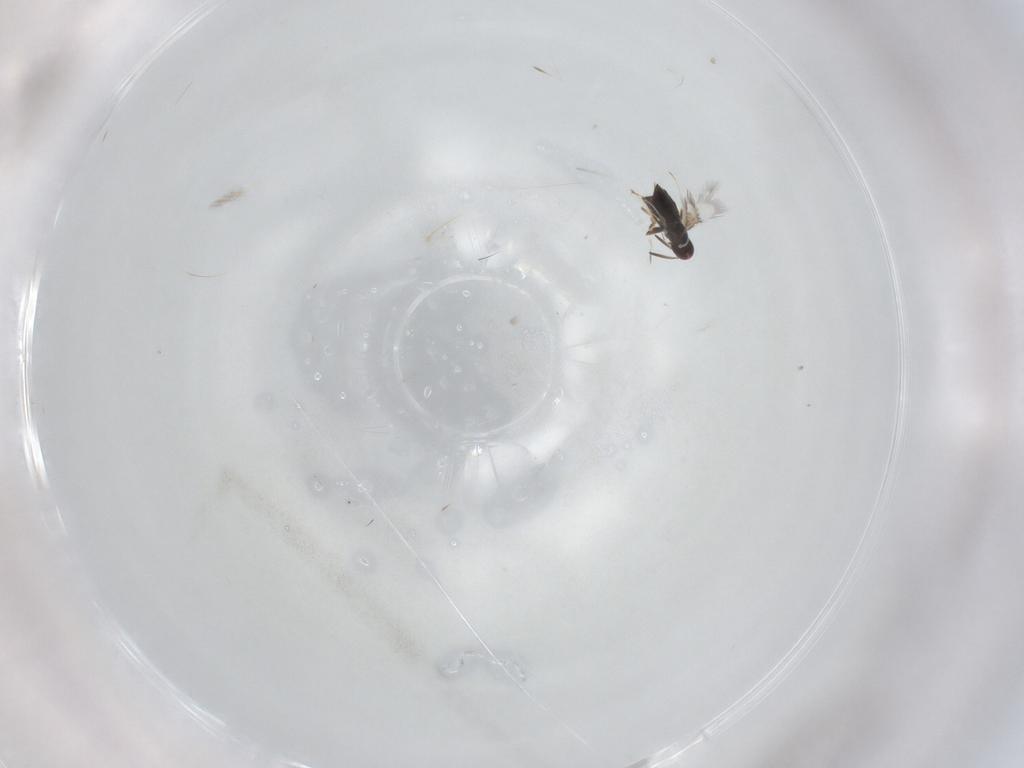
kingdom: Animalia
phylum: Arthropoda
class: Insecta
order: Hymenoptera
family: Signiphoridae
